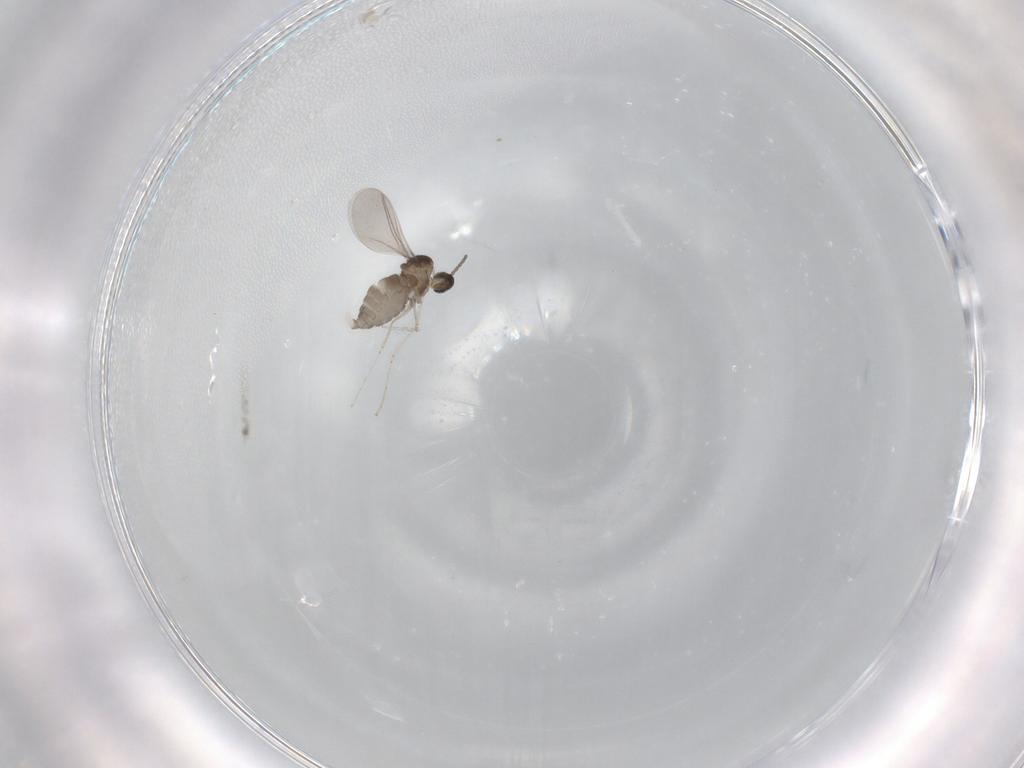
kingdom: Animalia
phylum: Arthropoda
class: Insecta
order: Diptera
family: Cecidomyiidae
